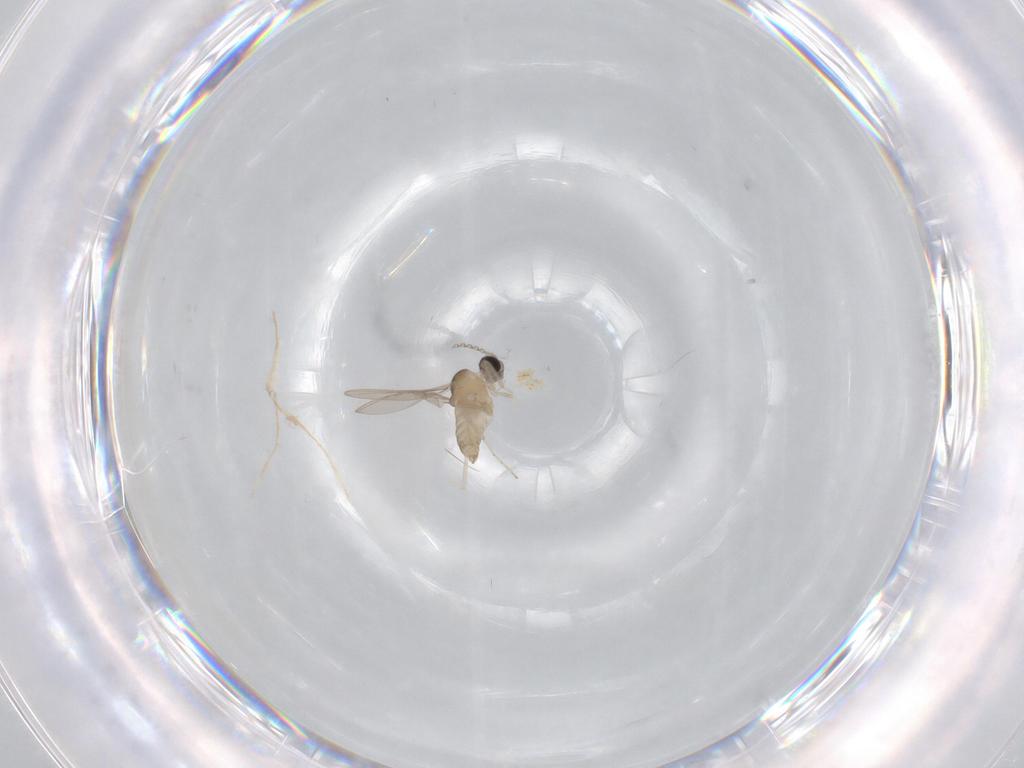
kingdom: Animalia
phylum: Arthropoda
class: Insecta
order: Diptera
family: Cecidomyiidae
